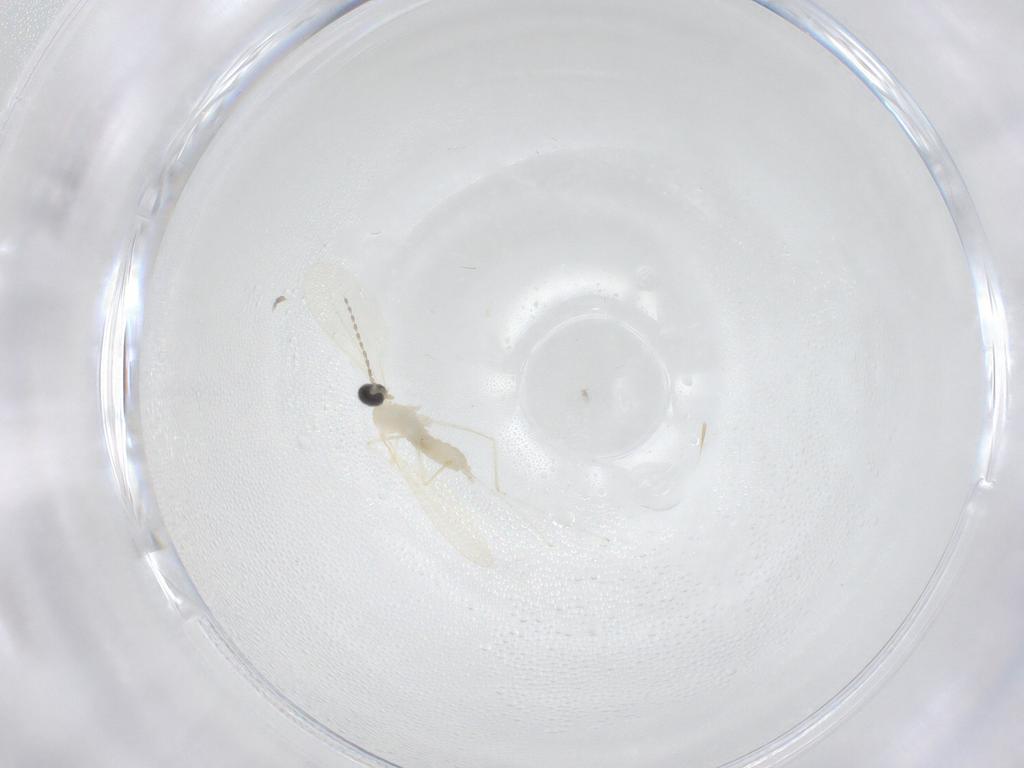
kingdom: Animalia
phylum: Arthropoda
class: Insecta
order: Diptera
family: Cecidomyiidae
